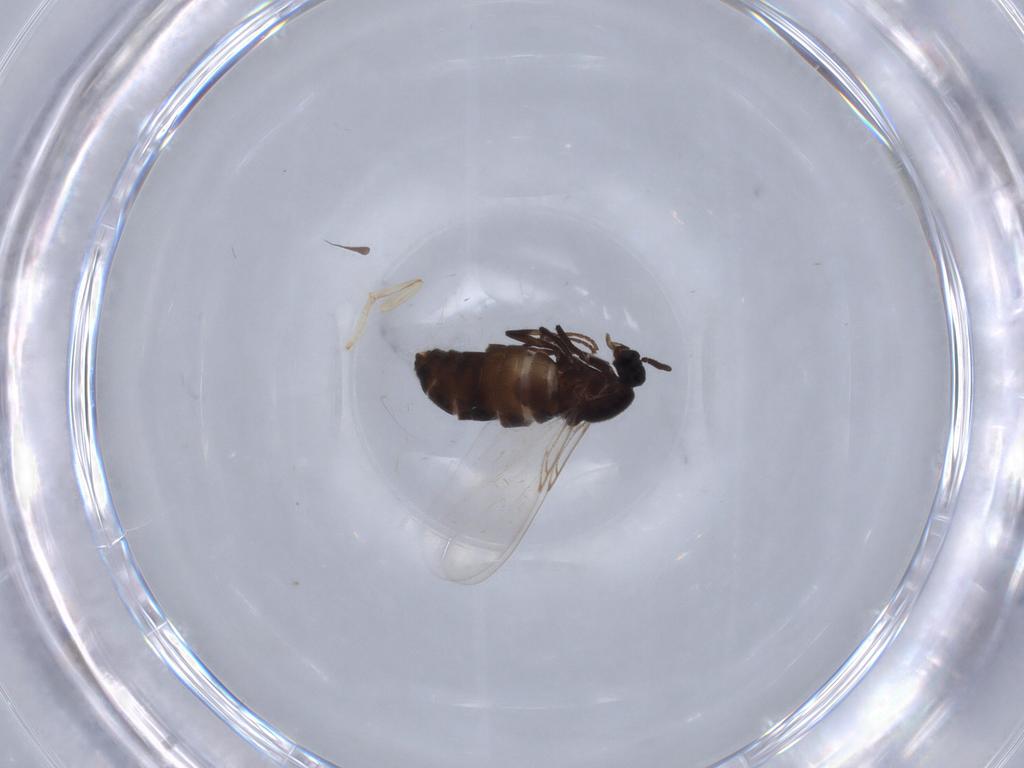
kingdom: Animalia
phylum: Arthropoda
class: Insecta
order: Diptera
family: Scatopsidae
